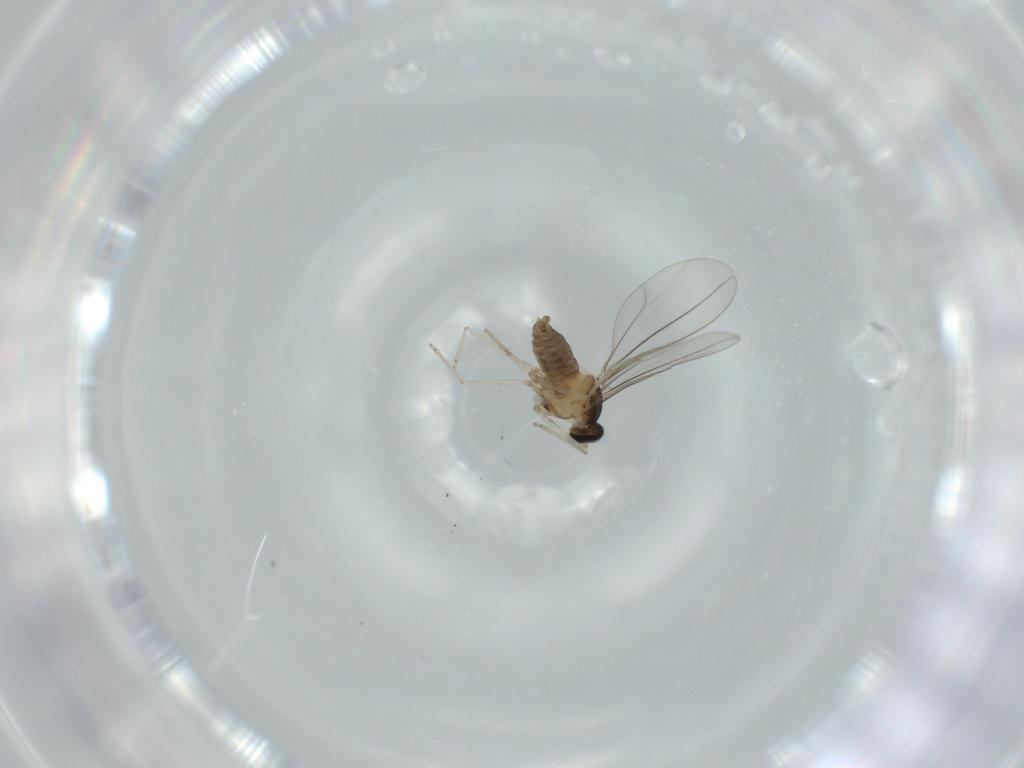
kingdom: Animalia
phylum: Arthropoda
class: Insecta
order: Diptera
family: Cecidomyiidae
